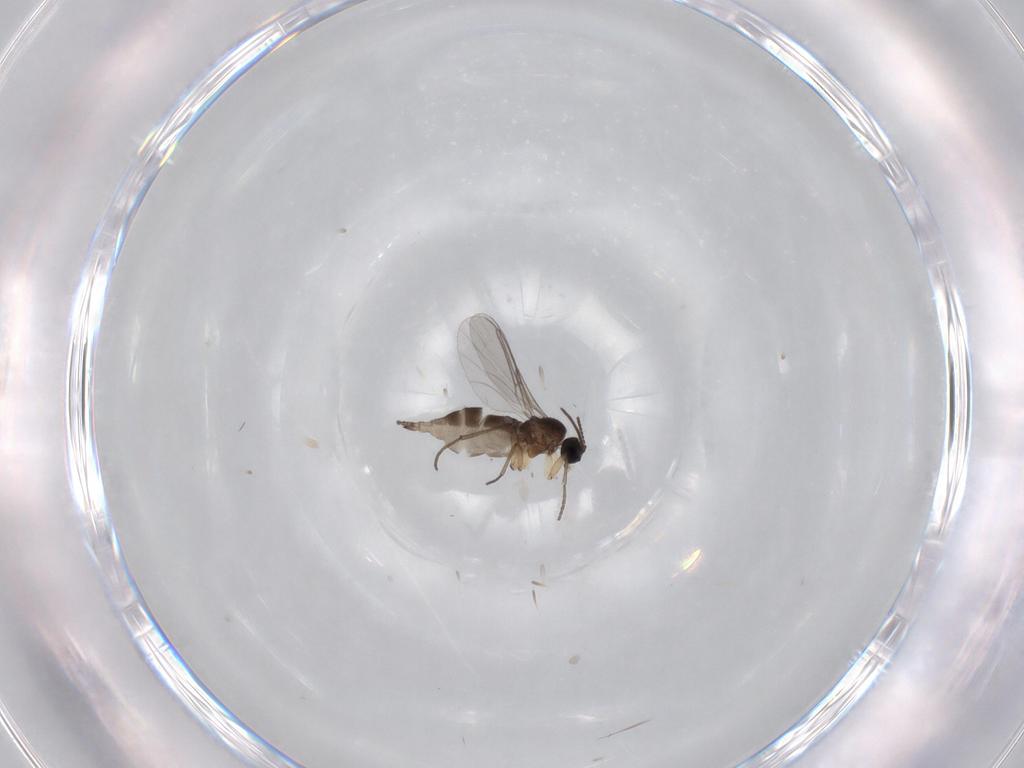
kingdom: Animalia
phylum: Arthropoda
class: Insecta
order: Diptera
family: Sciaridae
